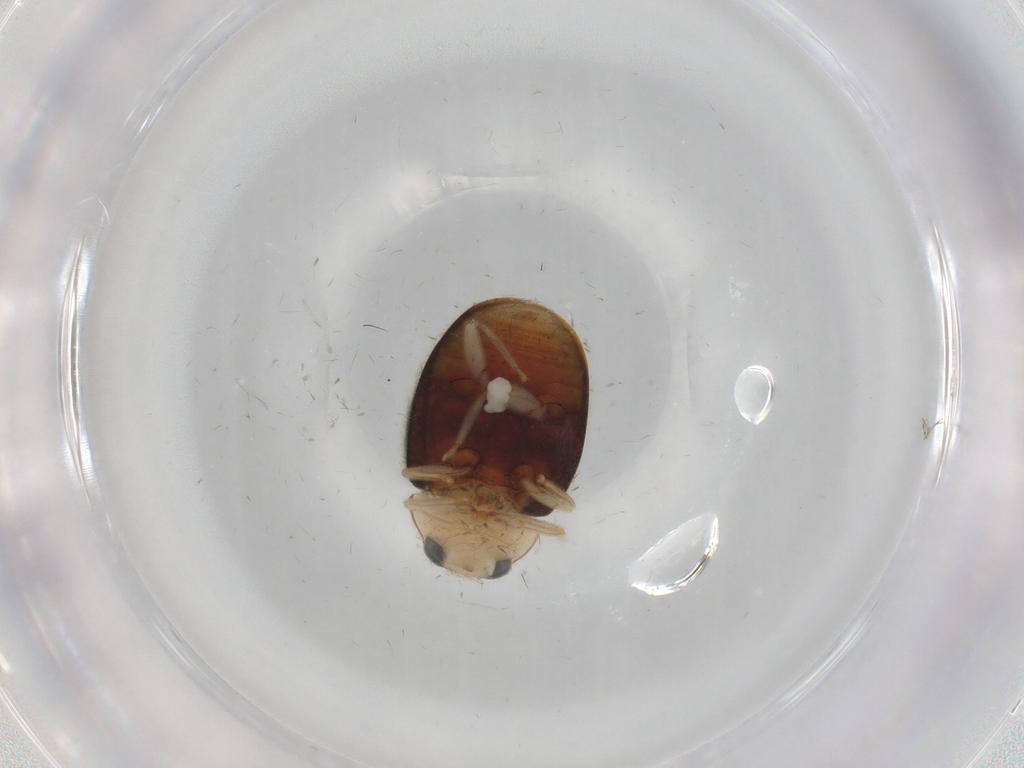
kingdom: Animalia
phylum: Arthropoda
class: Insecta
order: Coleoptera
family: Coccinellidae
